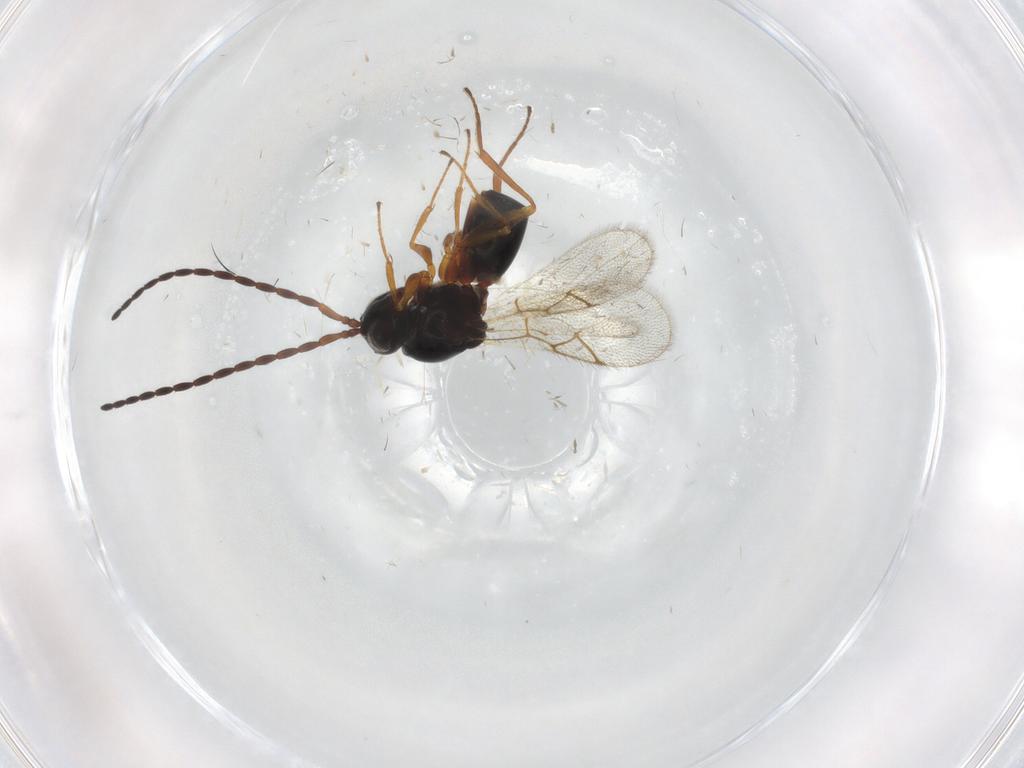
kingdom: Animalia
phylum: Arthropoda
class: Insecta
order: Hymenoptera
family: Figitidae
